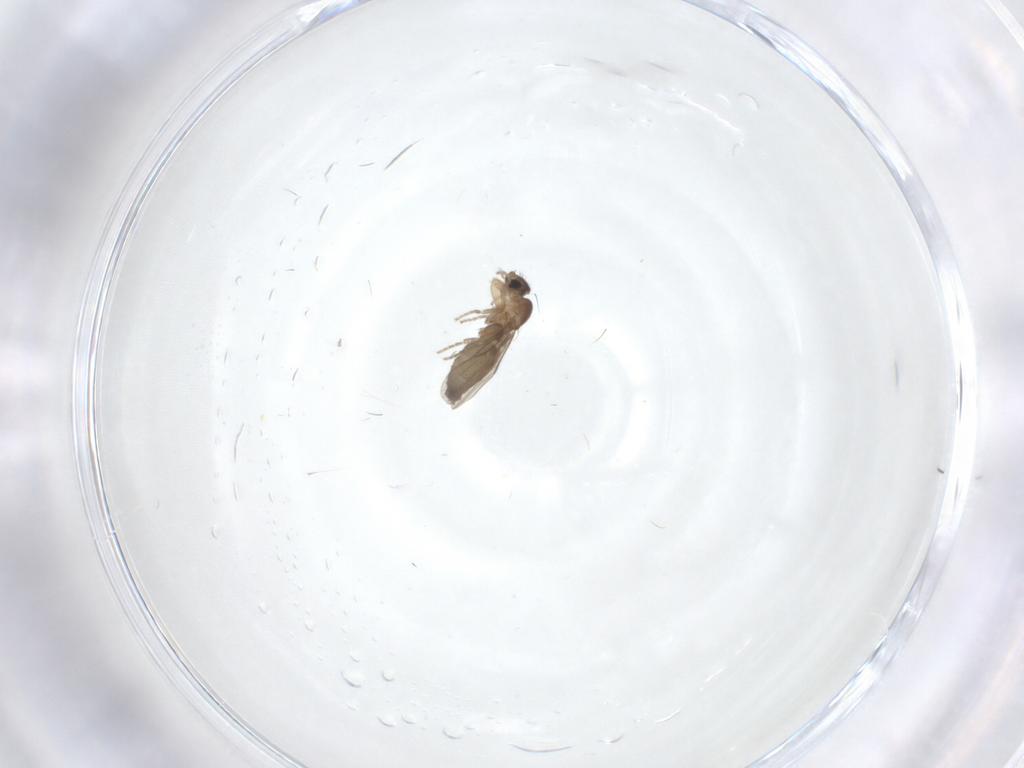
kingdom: Animalia
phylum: Arthropoda
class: Insecta
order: Diptera
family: Phoridae
